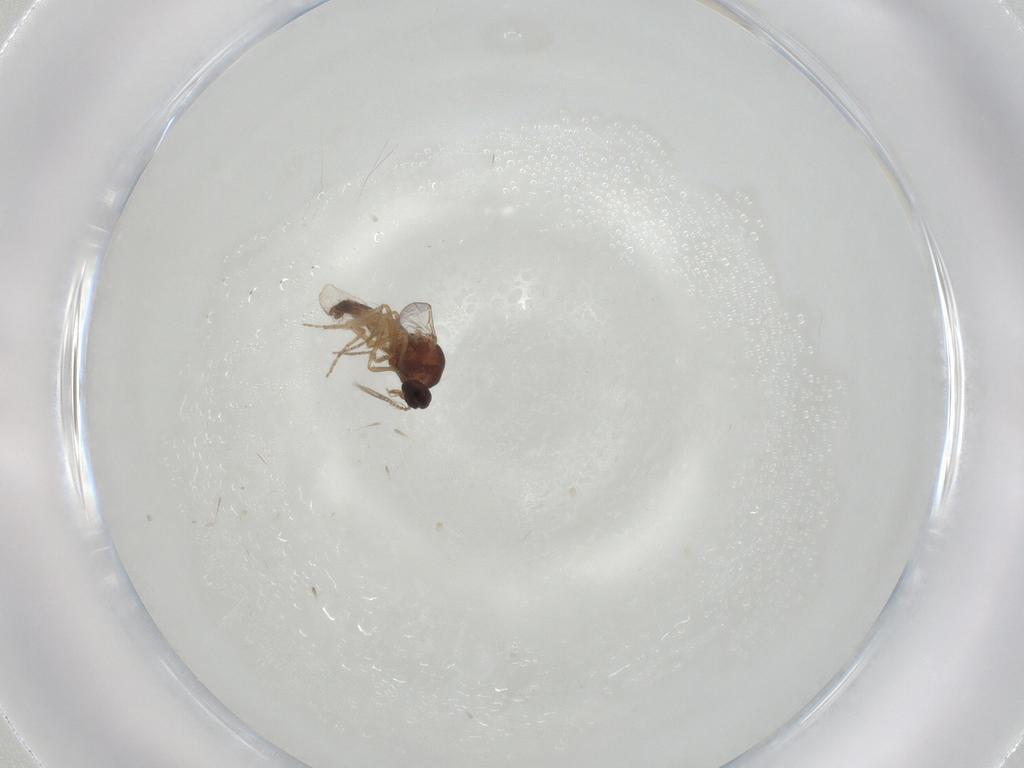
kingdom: Animalia
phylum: Arthropoda
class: Insecta
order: Diptera
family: Ceratopogonidae
